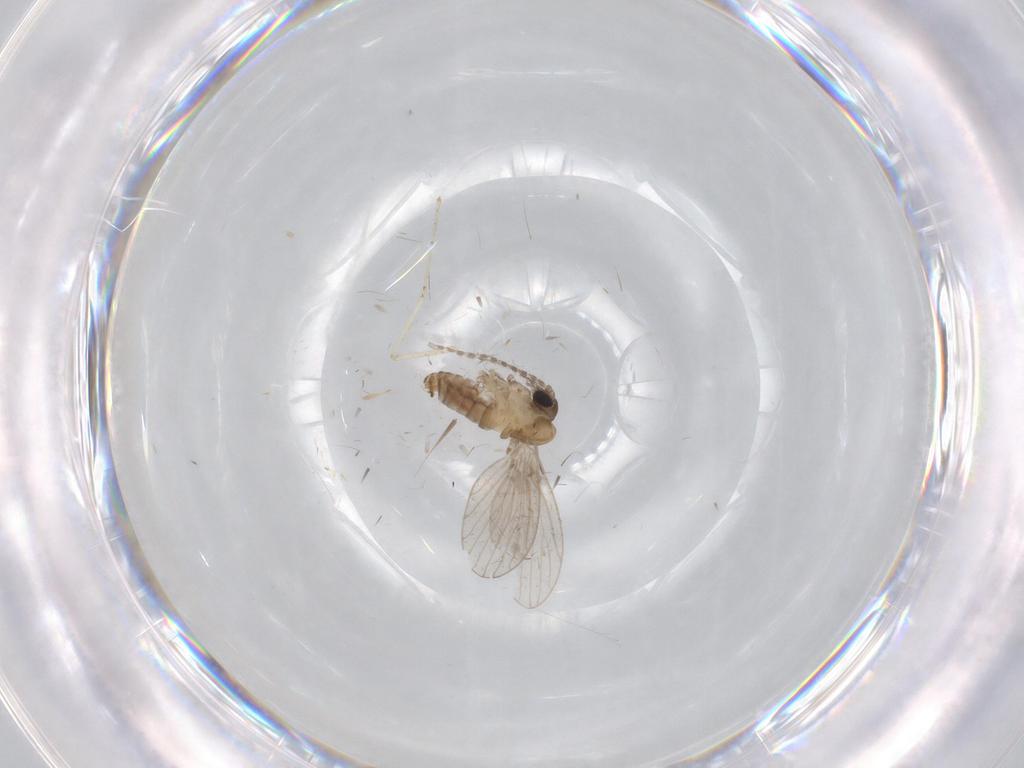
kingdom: Animalia
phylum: Arthropoda
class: Insecta
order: Diptera
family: Cecidomyiidae
